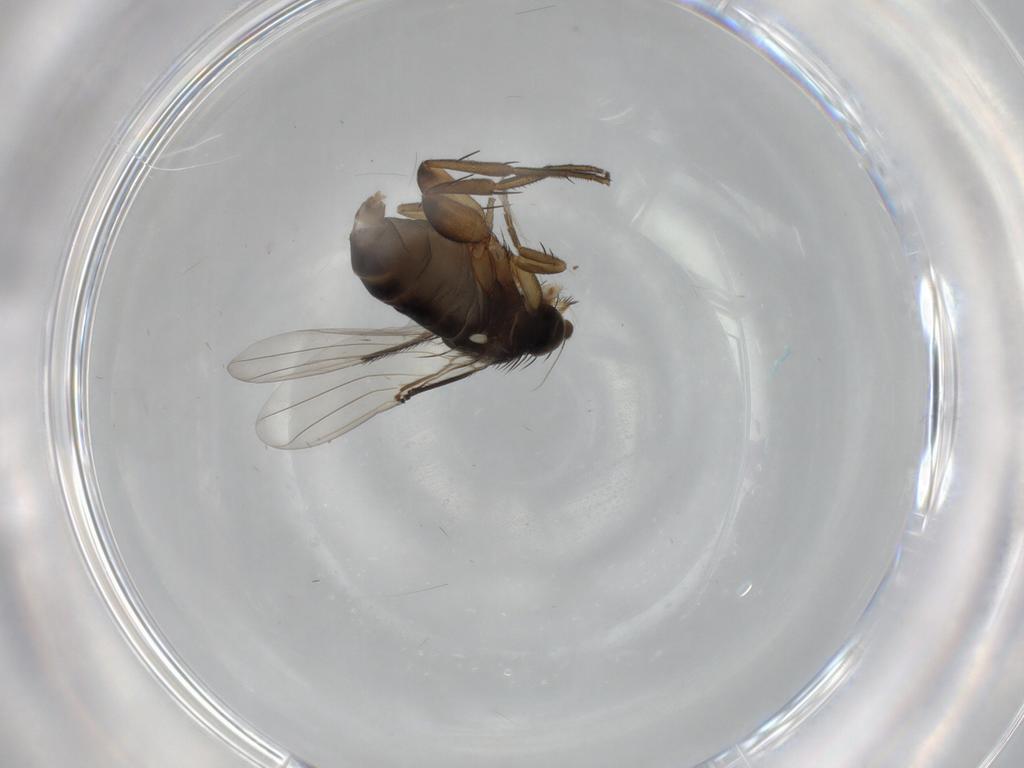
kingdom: Animalia
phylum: Arthropoda
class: Insecta
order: Diptera
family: Phoridae
